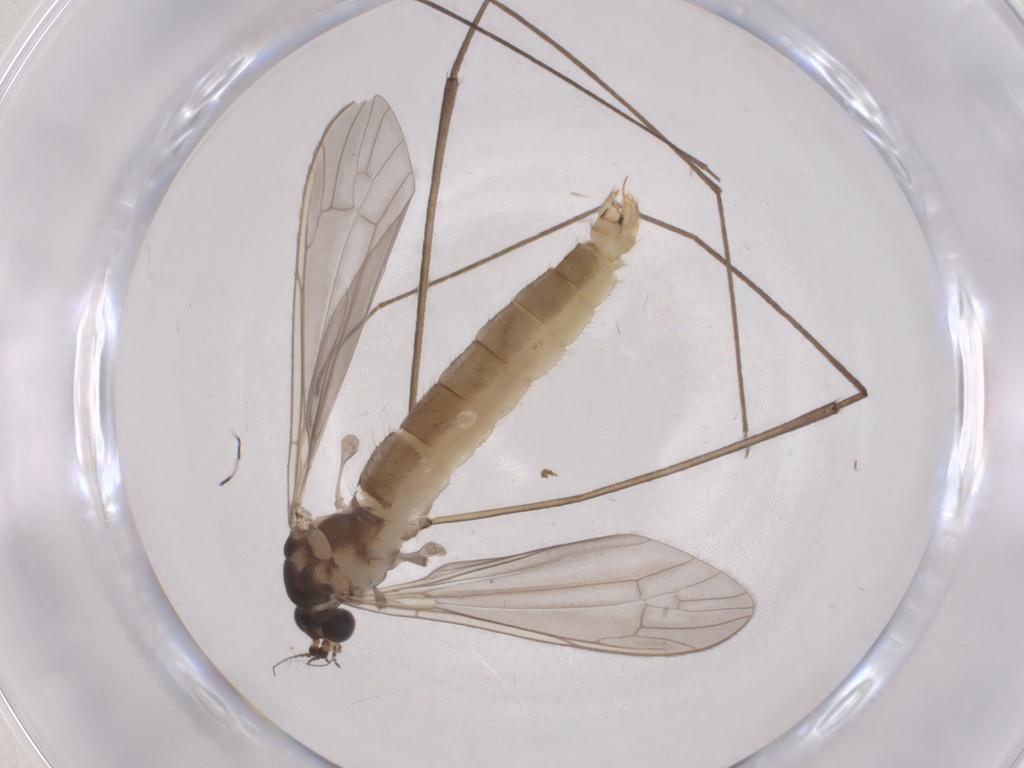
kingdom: Animalia
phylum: Arthropoda
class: Insecta
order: Diptera
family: Limoniidae
